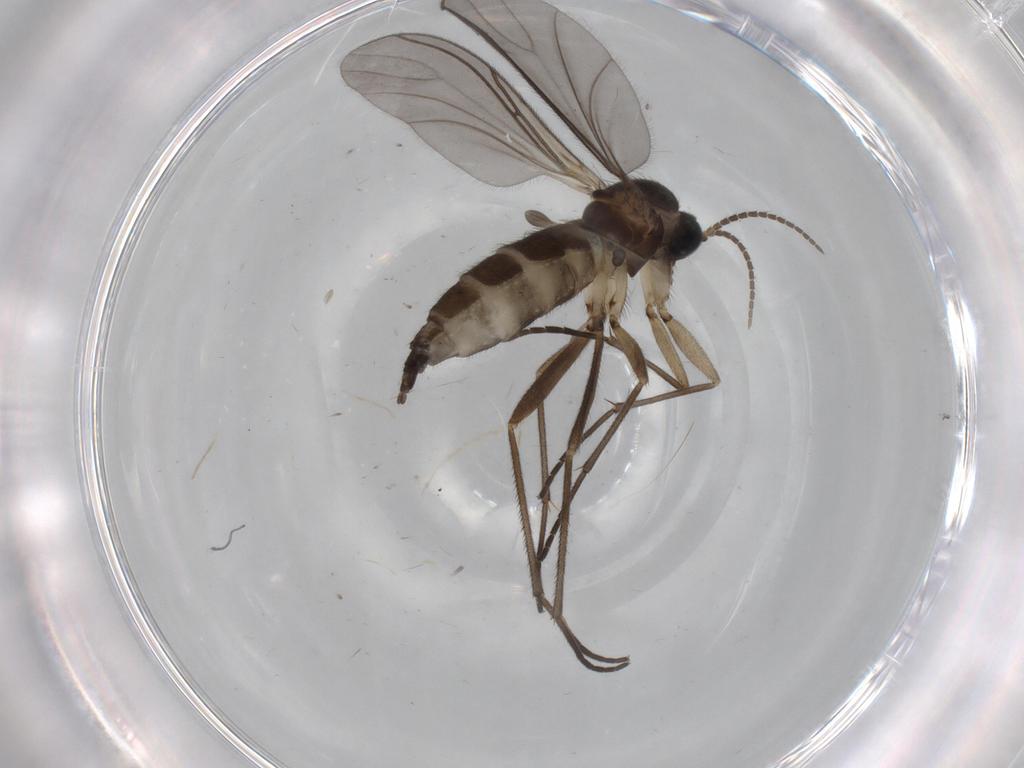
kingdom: Animalia
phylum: Arthropoda
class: Insecta
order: Diptera
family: Sciaridae
